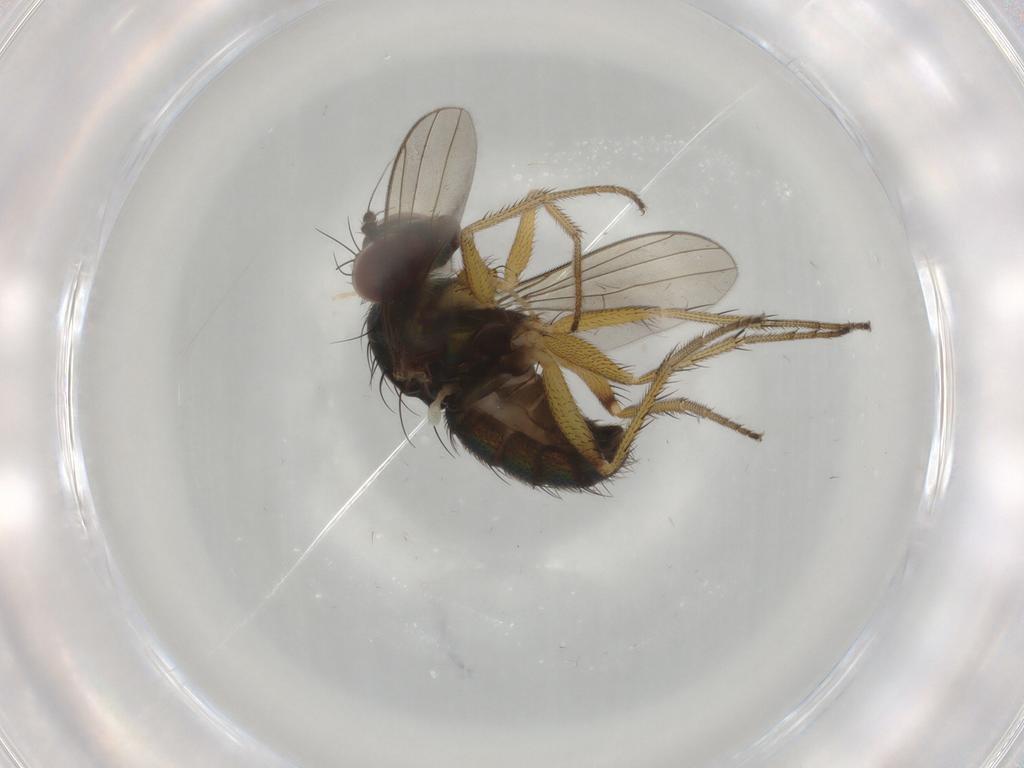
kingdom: Animalia
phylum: Arthropoda
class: Insecta
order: Diptera
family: Dolichopodidae
